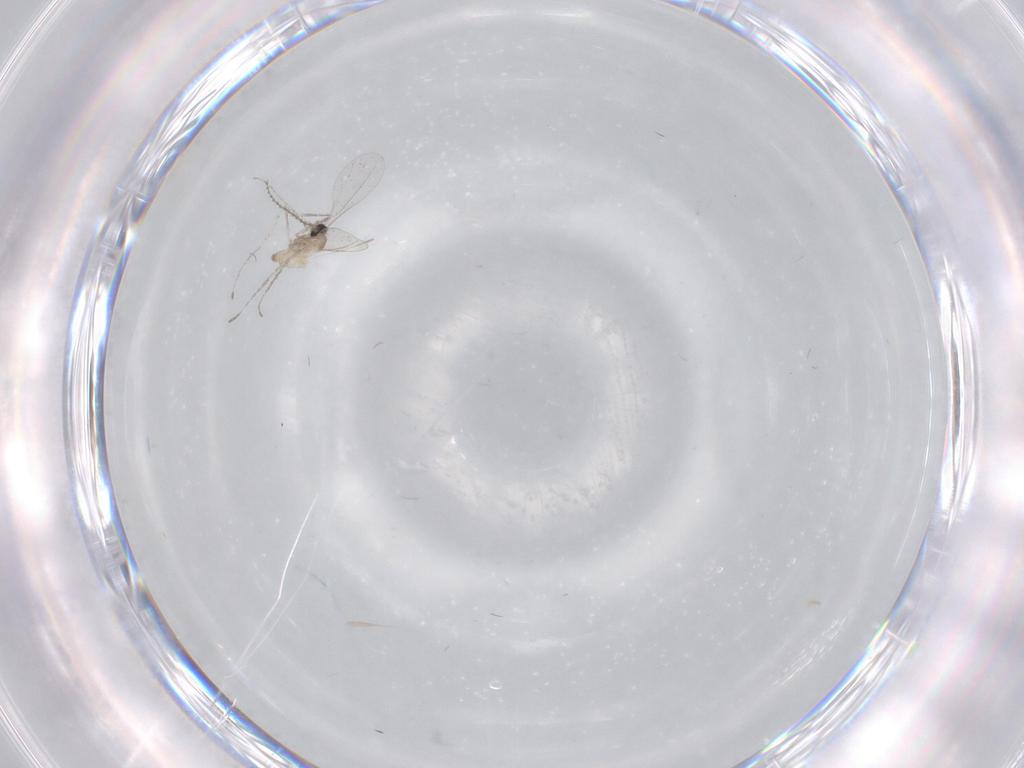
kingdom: Animalia
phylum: Arthropoda
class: Insecta
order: Diptera
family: Cecidomyiidae
